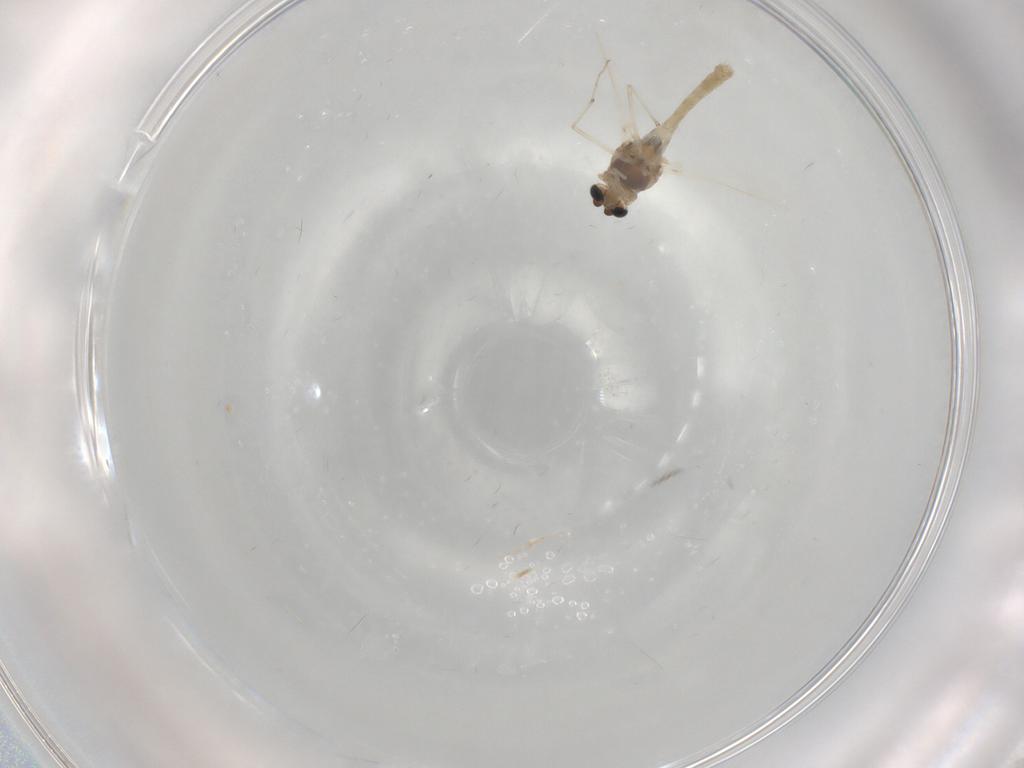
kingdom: Animalia
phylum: Arthropoda
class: Insecta
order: Diptera
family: Chironomidae
